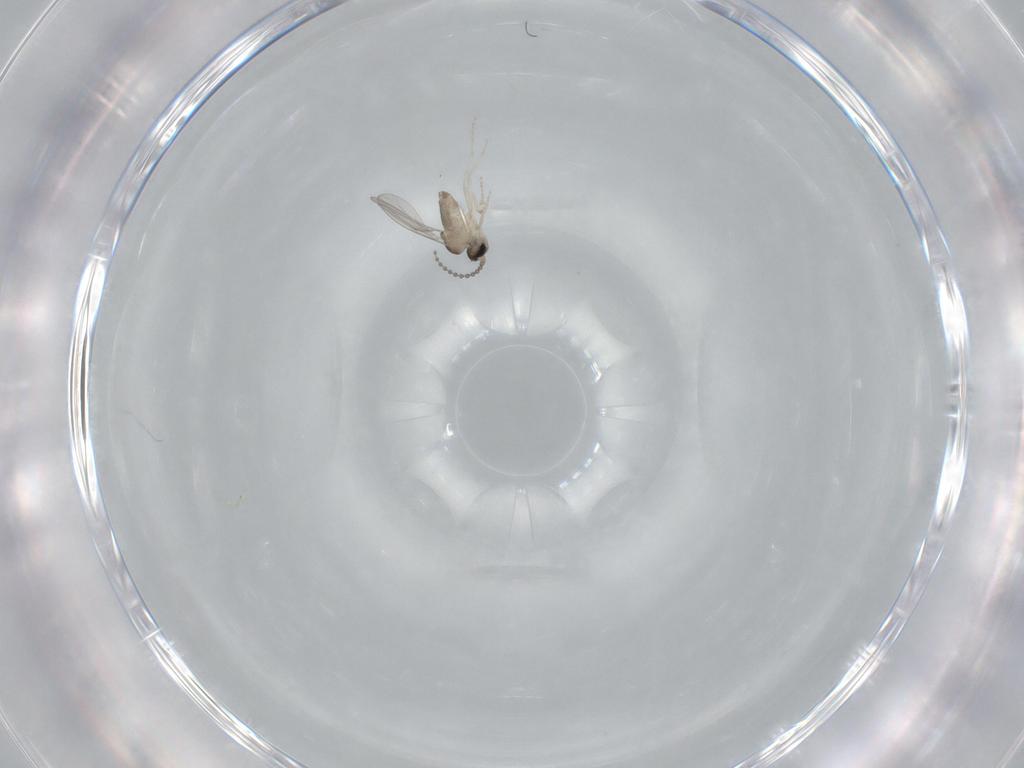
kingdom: Animalia
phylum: Arthropoda
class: Insecta
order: Diptera
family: Cecidomyiidae
